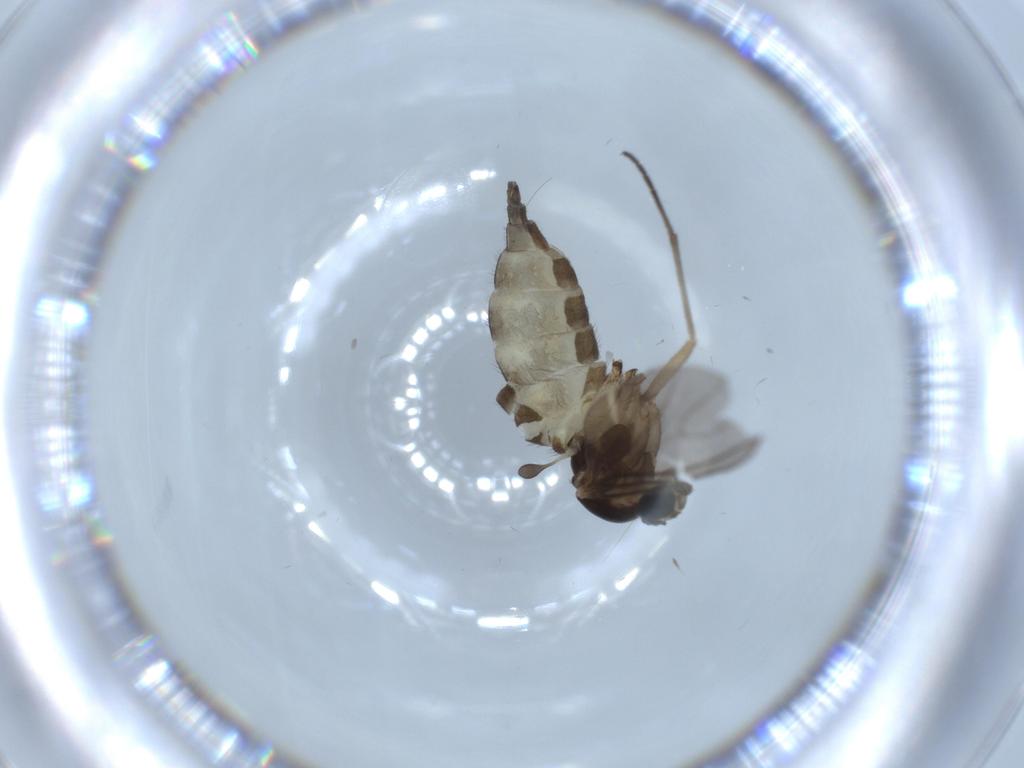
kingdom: Animalia
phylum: Arthropoda
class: Insecta
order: Diptera
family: Sciaridae
